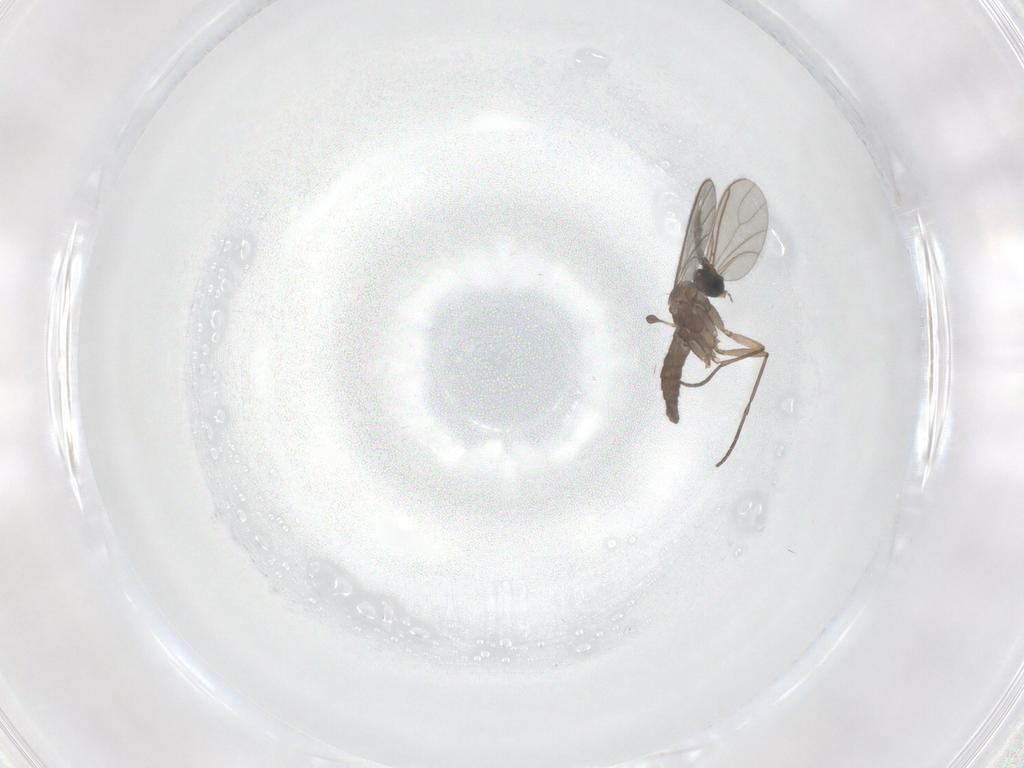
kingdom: Animalia
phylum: Arthropoda
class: Insecta
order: Diptera
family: Sciaridae
